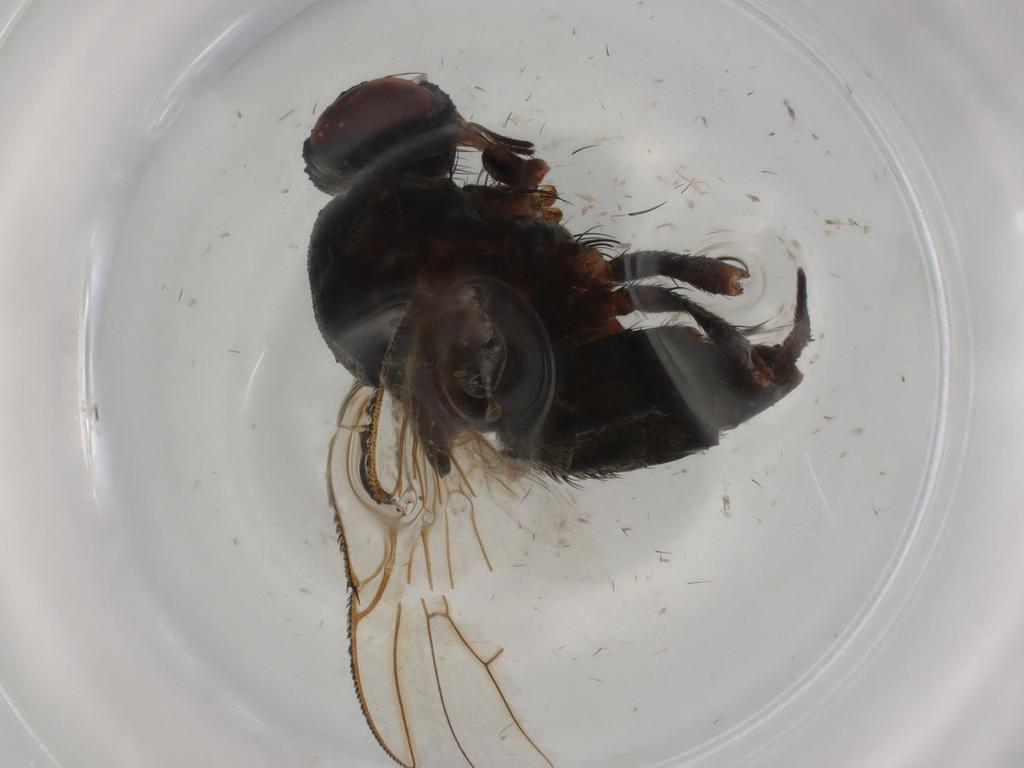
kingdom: Animalia
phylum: Arthropoda
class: Insecta
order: Diptera
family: Muscidae
